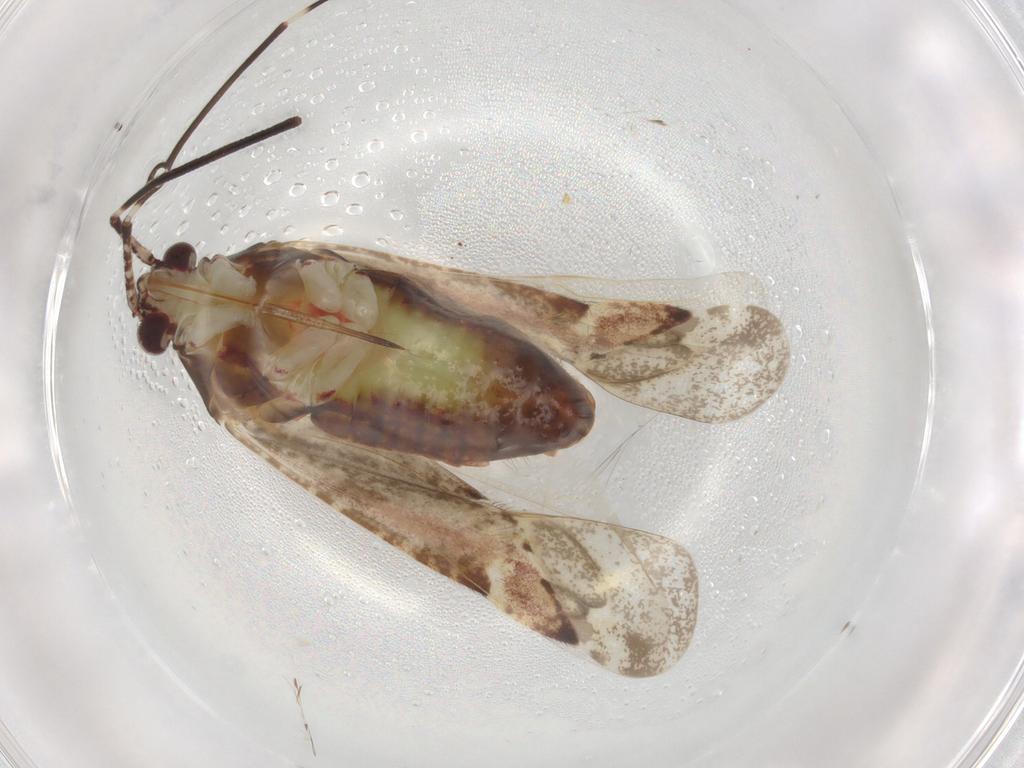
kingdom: Animalia
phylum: Arthropoda
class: Insecta
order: Hemiptera
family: Miridae
